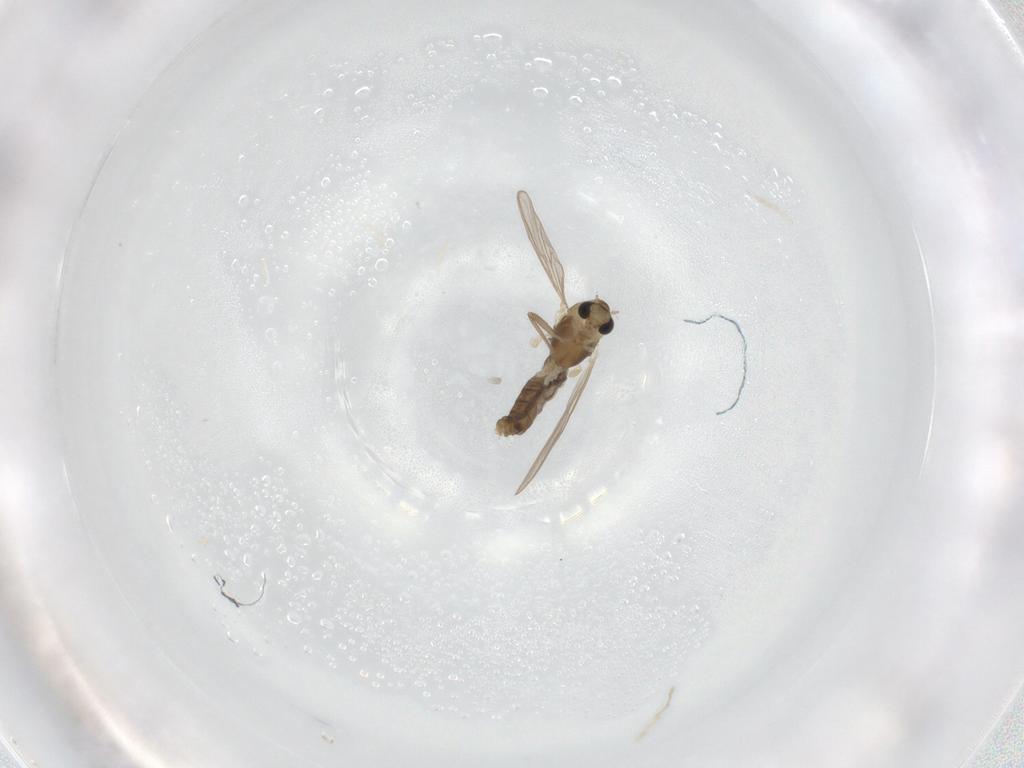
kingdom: Animalia
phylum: Arthropoda
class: Insecta
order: Diptera
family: Chironomidae
